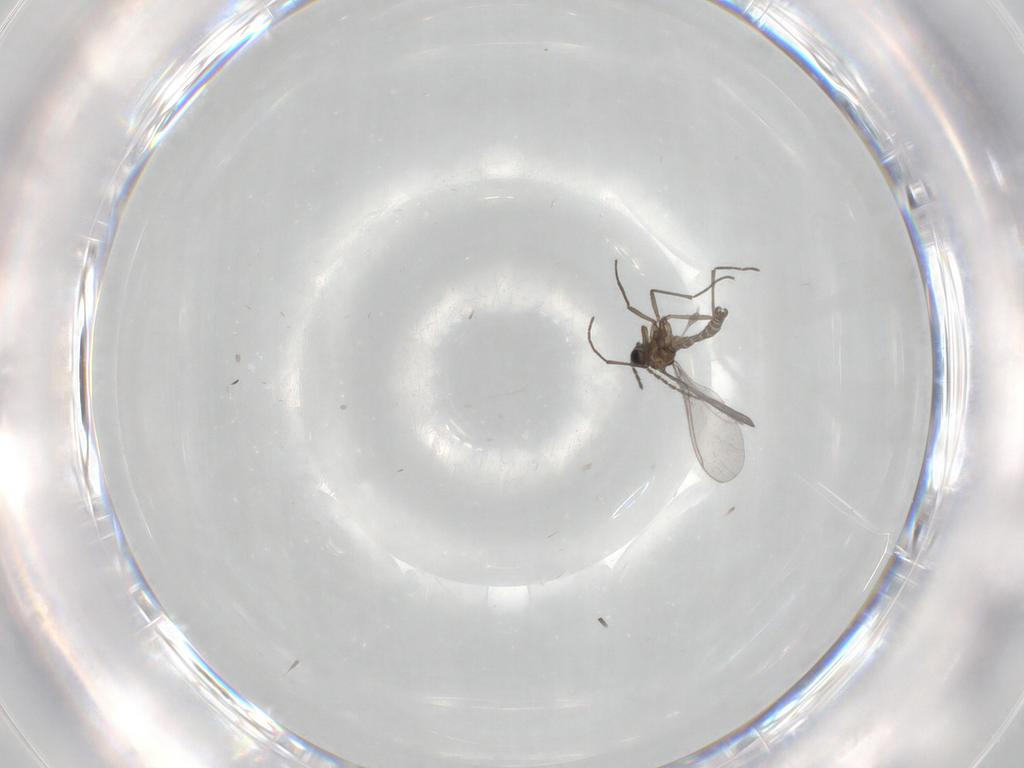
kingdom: Animalia
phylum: Arthropoda
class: Insecta
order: Diptera
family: Sciaridae
